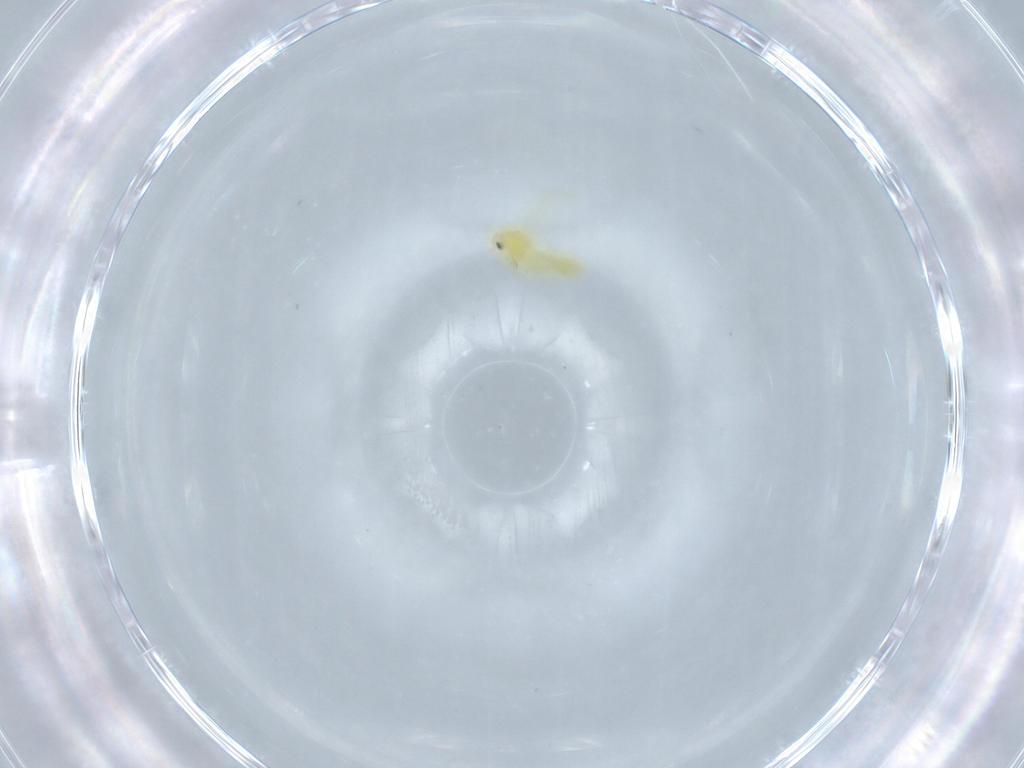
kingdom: Animalia
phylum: Arthropoda
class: Insecta
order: Hemiptera
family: Aleyrodidae
